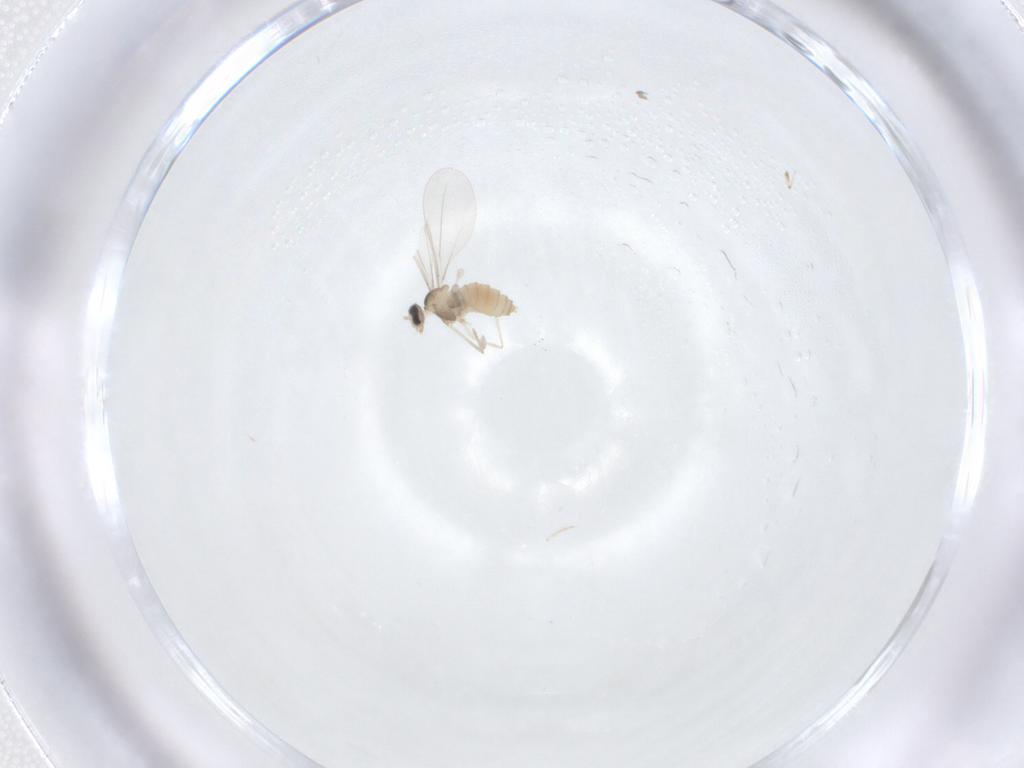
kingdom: Animalia
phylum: Arthropoda
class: Insecta
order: Diptera
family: Cecidomyiidae
